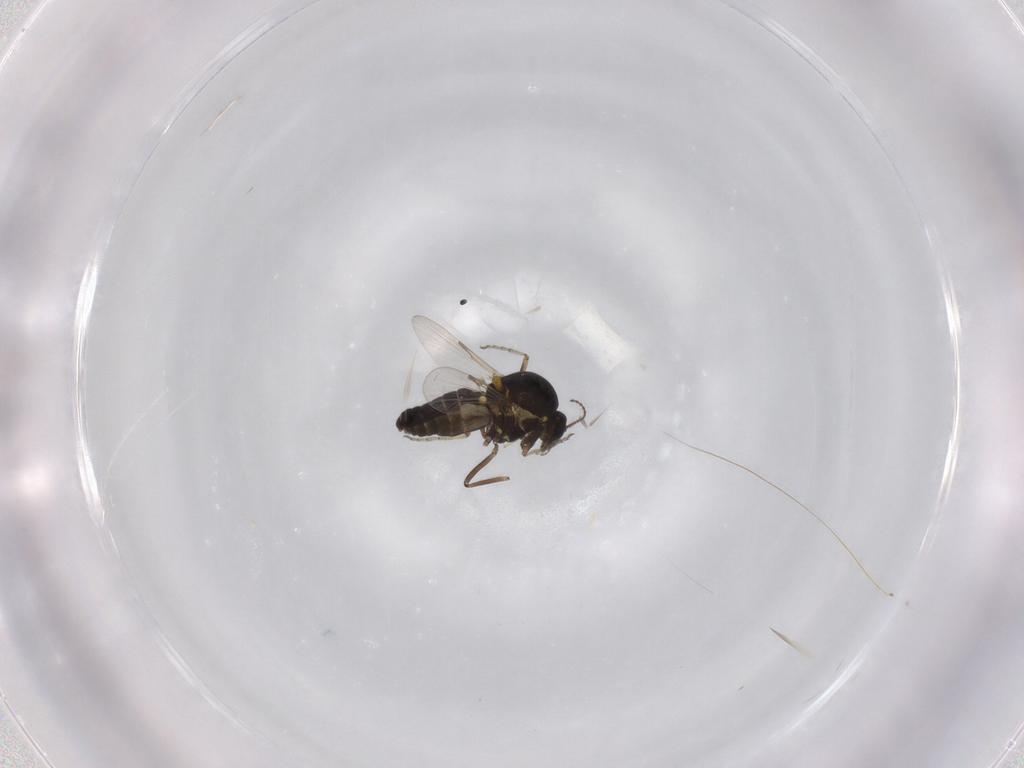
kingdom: Animalia
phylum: Arthropoda
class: Insecta
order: Diptera
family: Ceratopogonidae
